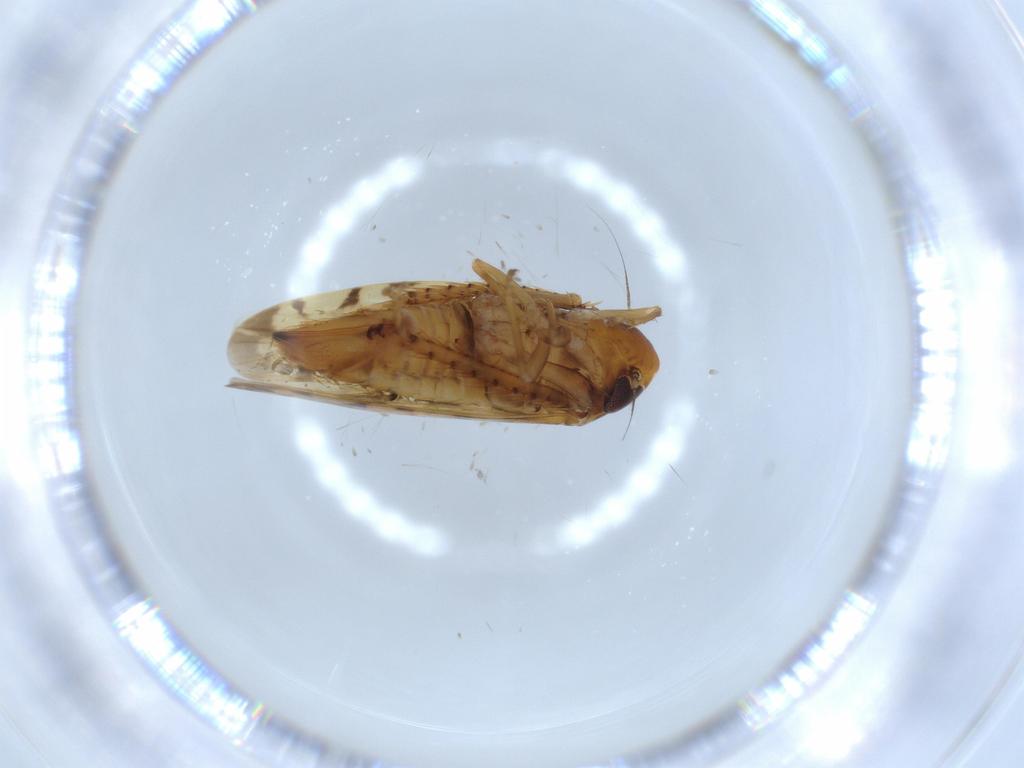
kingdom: Animalia
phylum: Arthropoda
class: Insecta
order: Hemiptera
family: Cicadellidae
